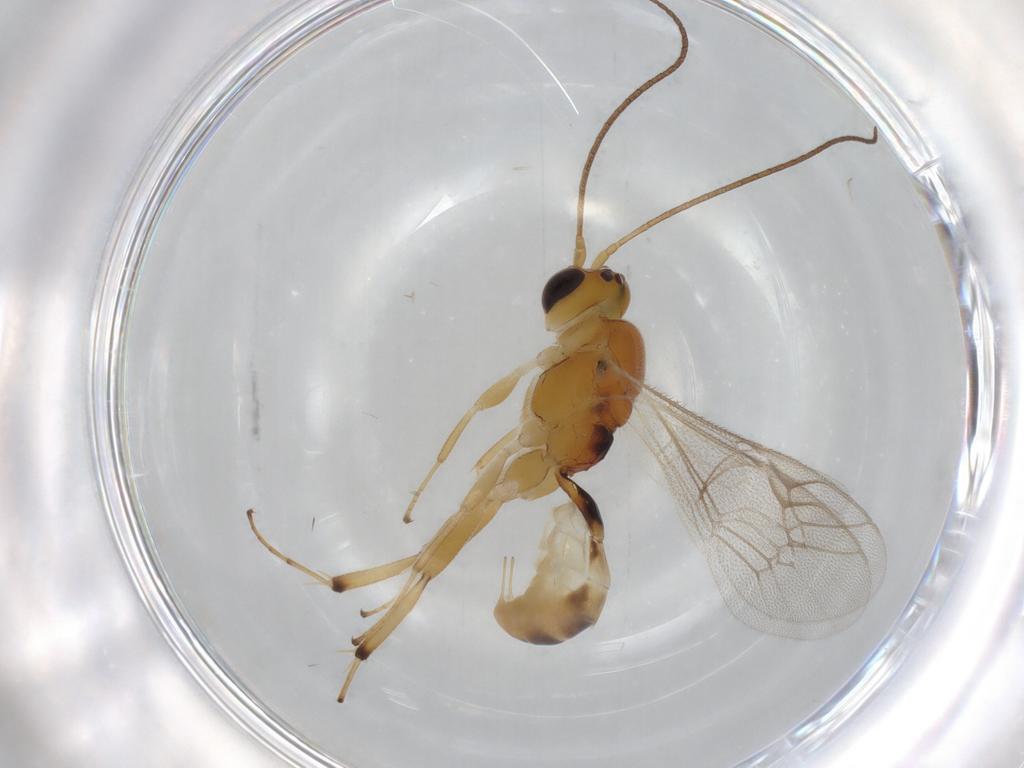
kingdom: Animalia
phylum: Arthropoda
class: Insecta
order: Hymenoptera
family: Ichneumonidae
